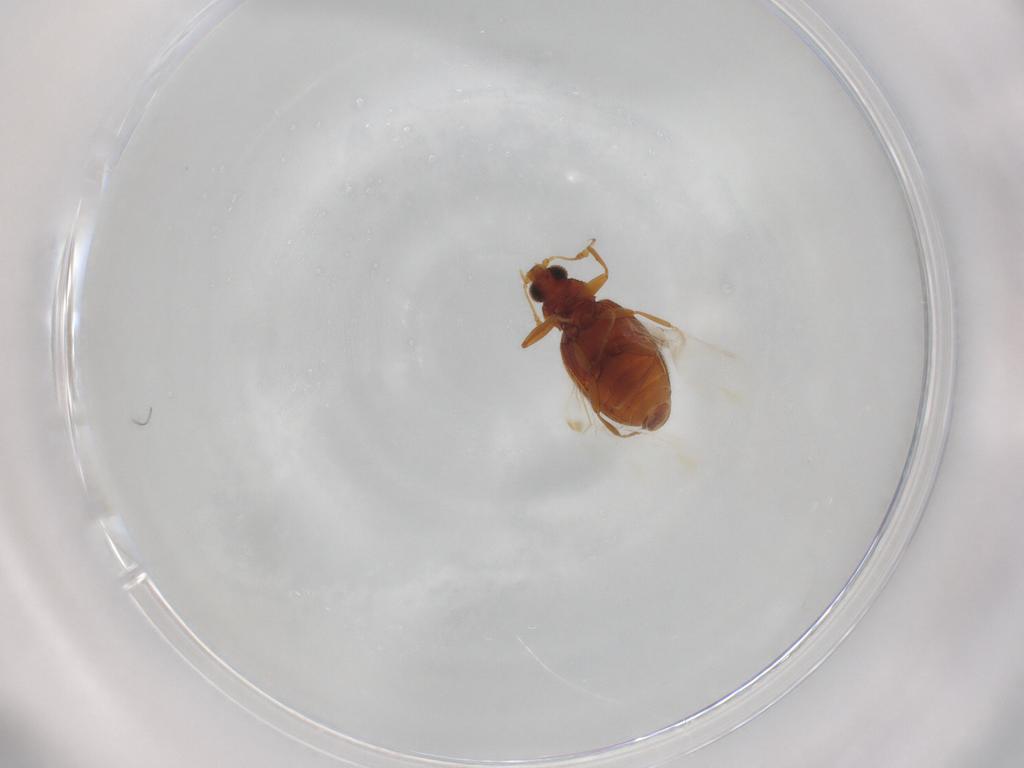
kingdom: Animalia
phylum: Arthropoda
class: Insecta
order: Coleoptera
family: Latridiidae
